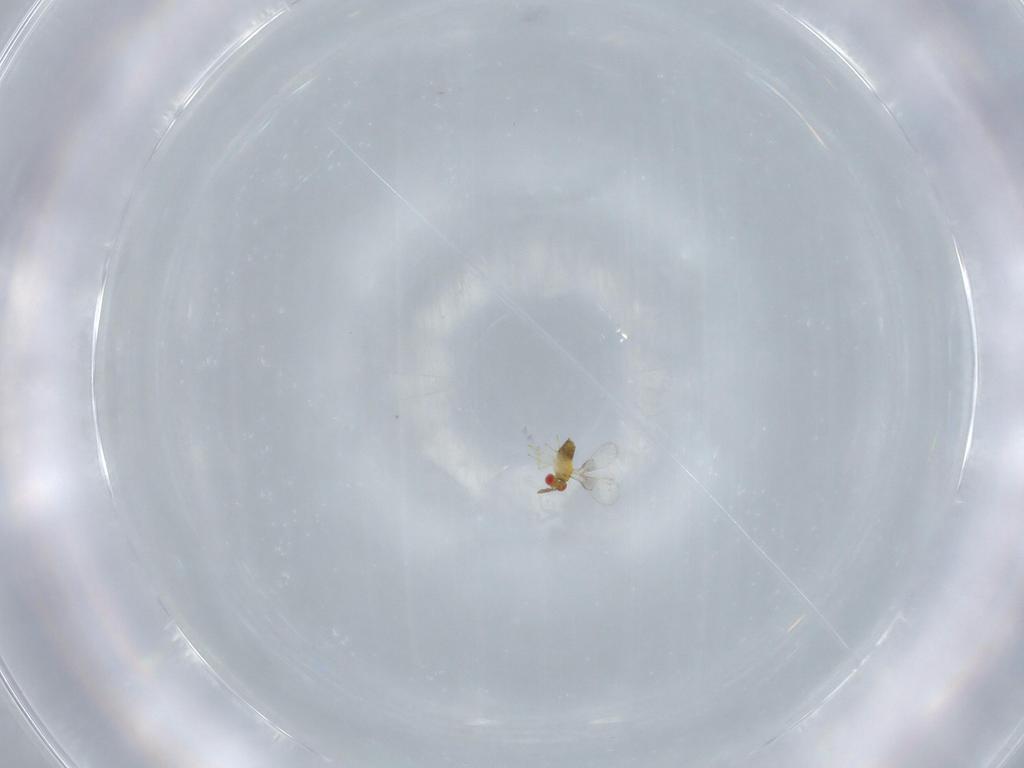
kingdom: Animalia
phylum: Arthropoda
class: Insecta
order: Hymenoptera
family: Trichogrammatidae
